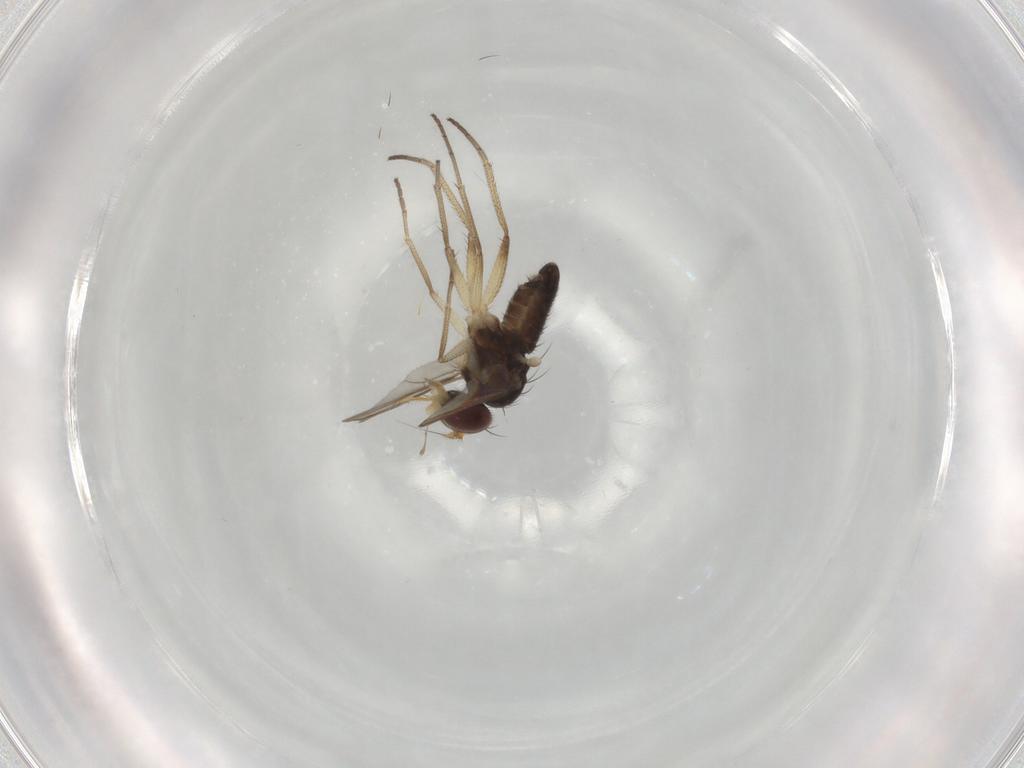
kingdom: Animalia
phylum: Arthropoda
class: Insecta
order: Diptera
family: Dolichopodidae
